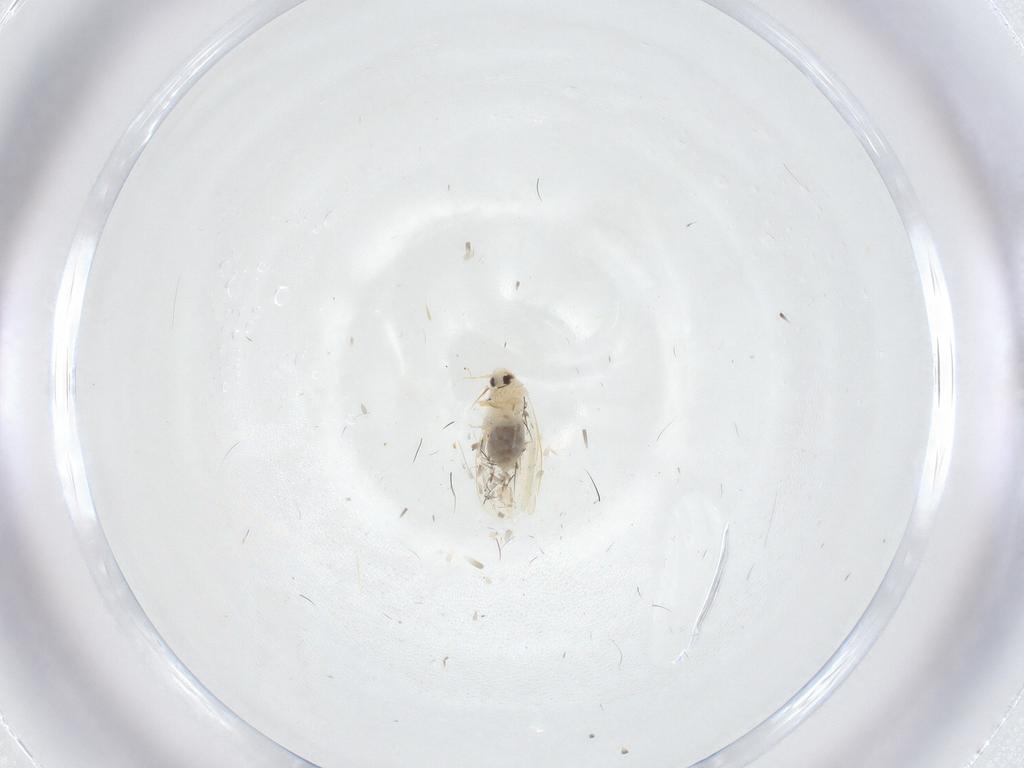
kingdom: Animalia
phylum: Arthropoda
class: Insecta
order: Hemiptera
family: Aleyrodidae
